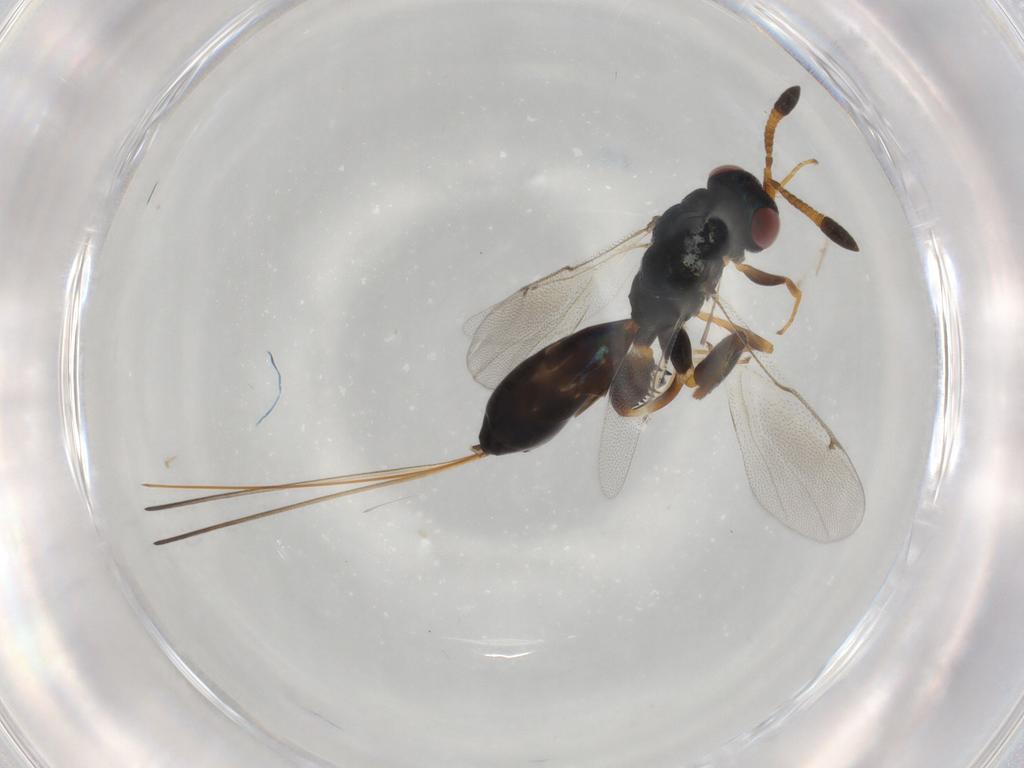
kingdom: Animalia
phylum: Arthropoda
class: Insecta
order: Hymenoptera
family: Torymidae
